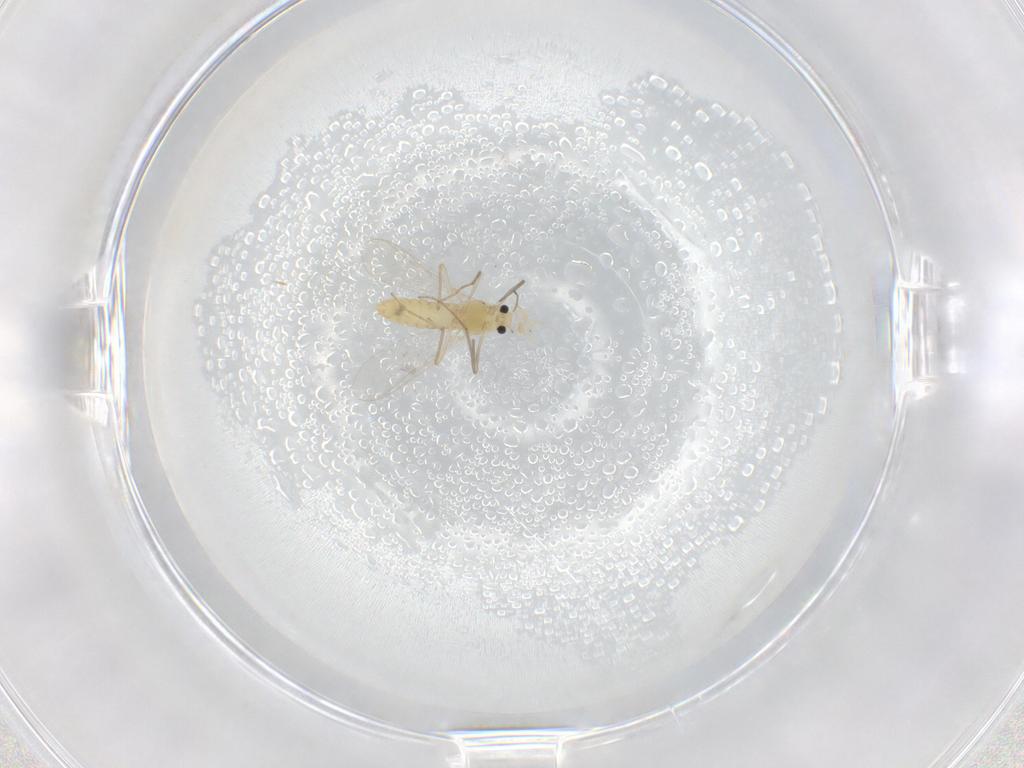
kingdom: Animalia
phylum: Arthropoda
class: Insecta
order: Diptera
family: Chironomidae
